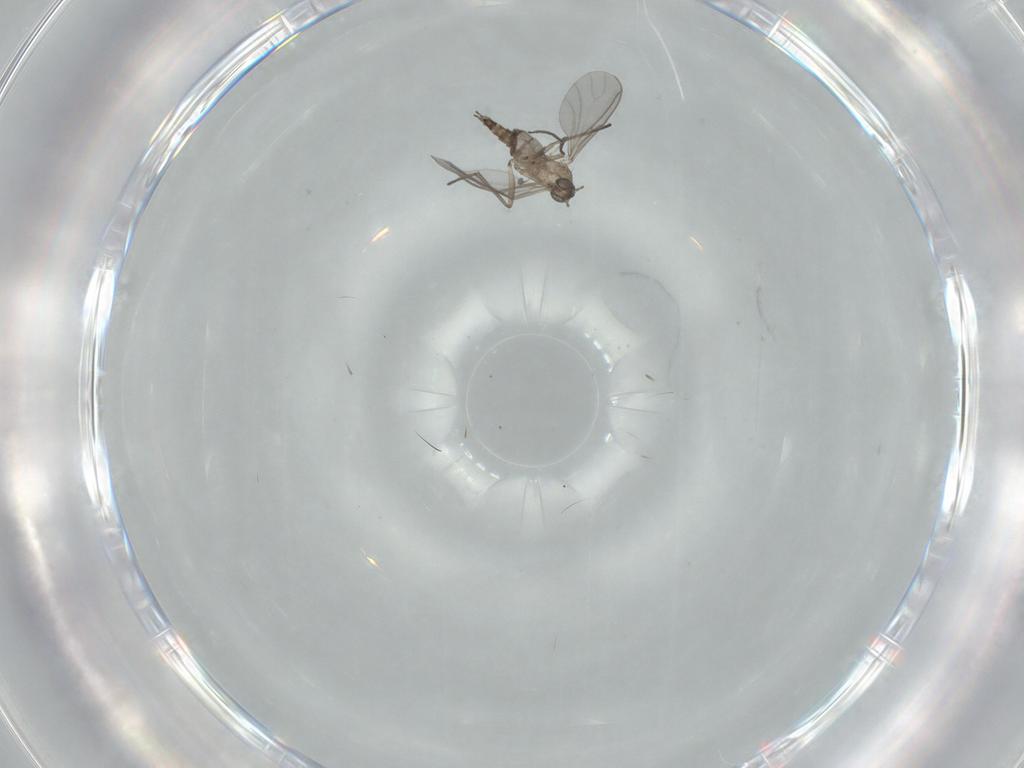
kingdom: Animalia
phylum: Arthropoda
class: Insecta
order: Diptera
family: Sciaridae
